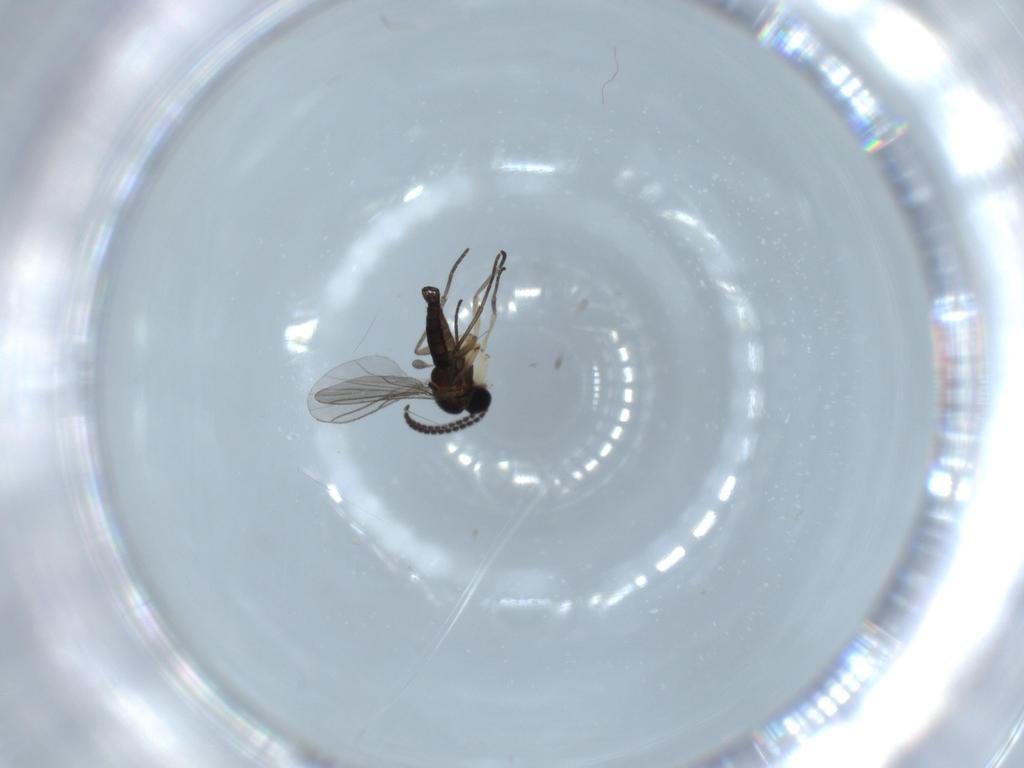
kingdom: Animalia
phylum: Arthropoda
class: Insecta
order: Diptera
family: Sciaridae
